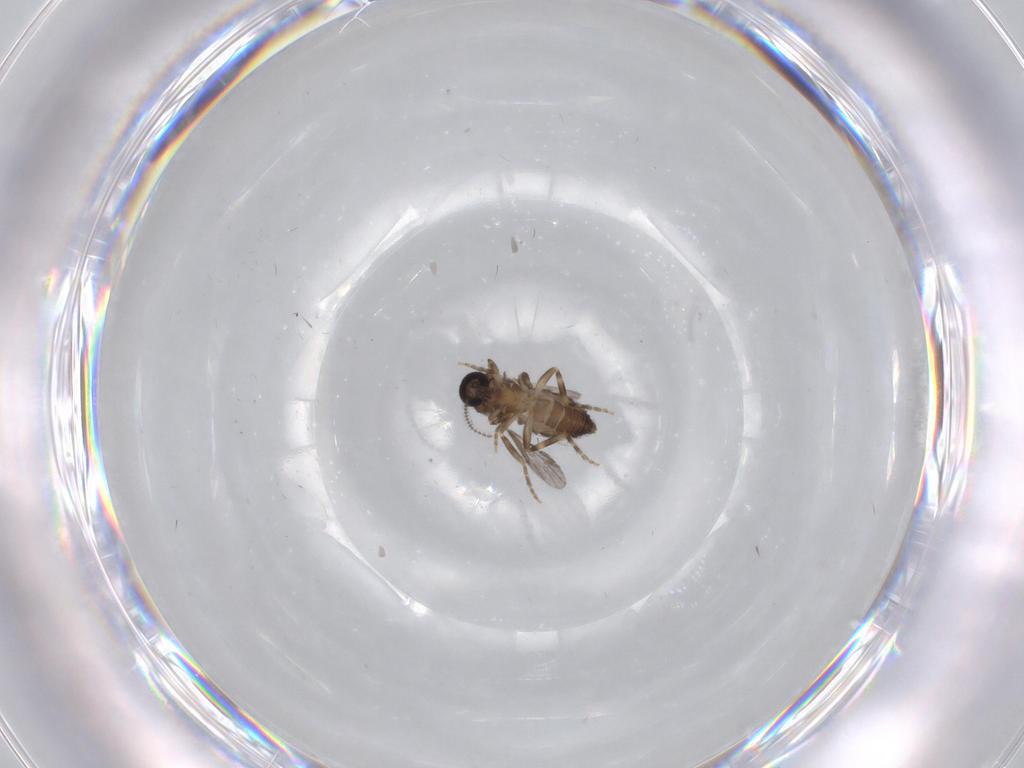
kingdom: Animalia
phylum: Arthropoda
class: Insecta
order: Diptera
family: Ceratopogonidae
